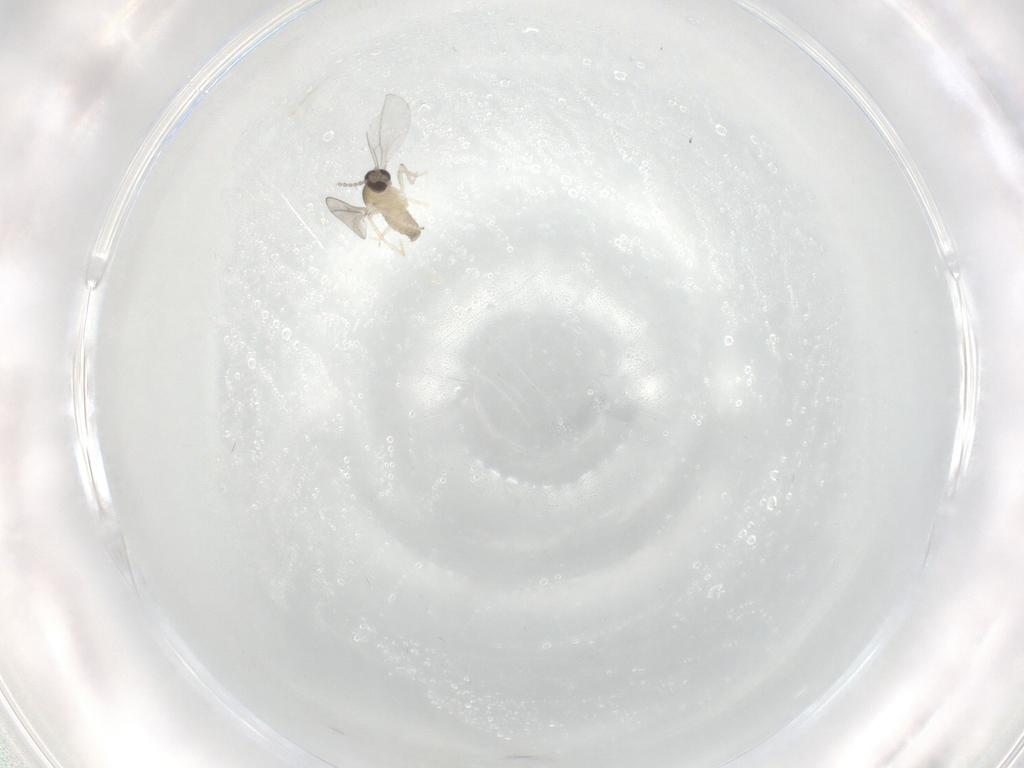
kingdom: Animalia
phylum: Arthropoda
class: Insecta
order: Diptera
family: Cecidomyiidae
